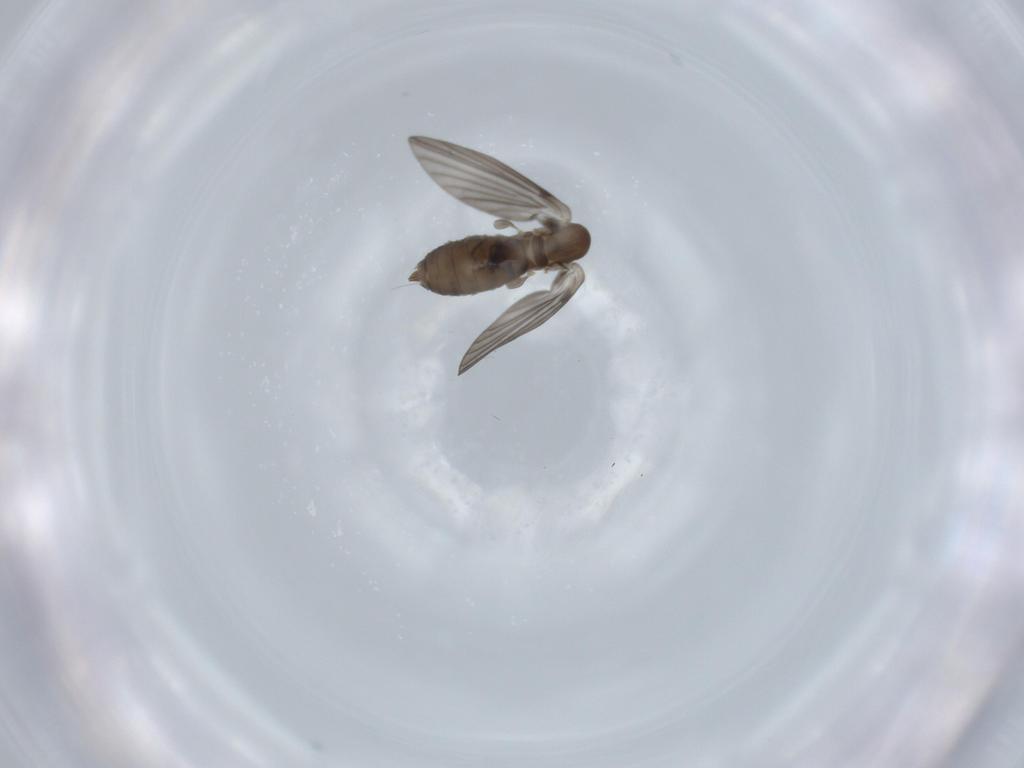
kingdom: Animalia
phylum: Arthropoda
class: Insecta
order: Diptera
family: Psychodidae
